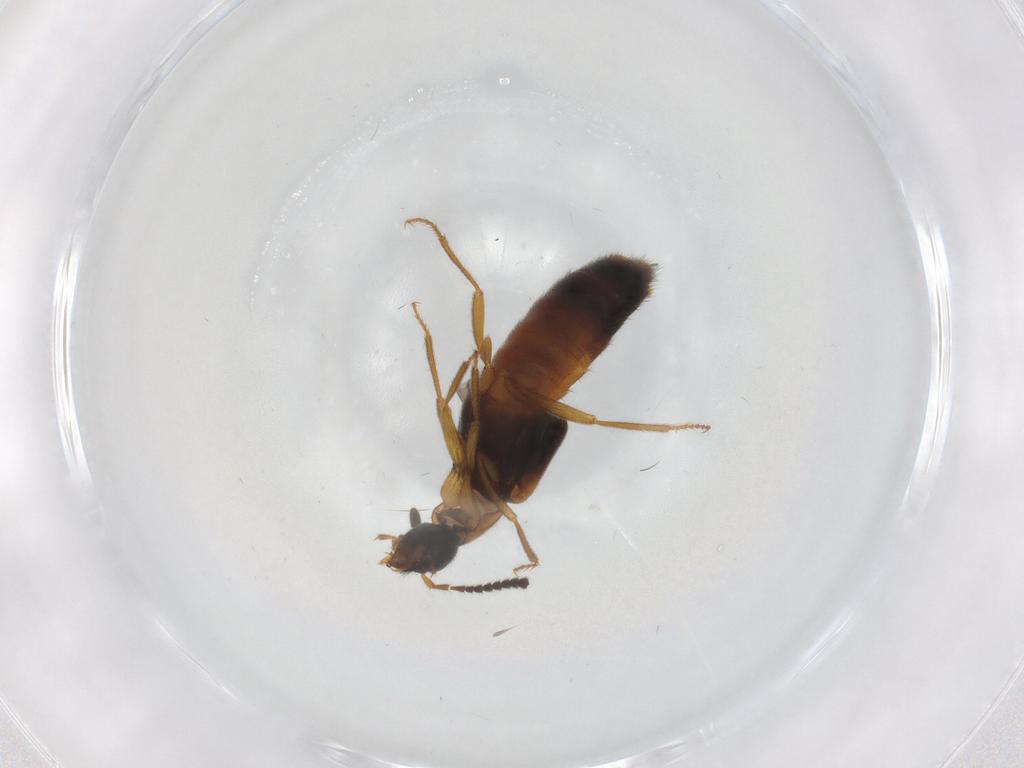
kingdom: Animalia
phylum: Arthropoda
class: Insecta
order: Coleoptera
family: Staphylinidae
